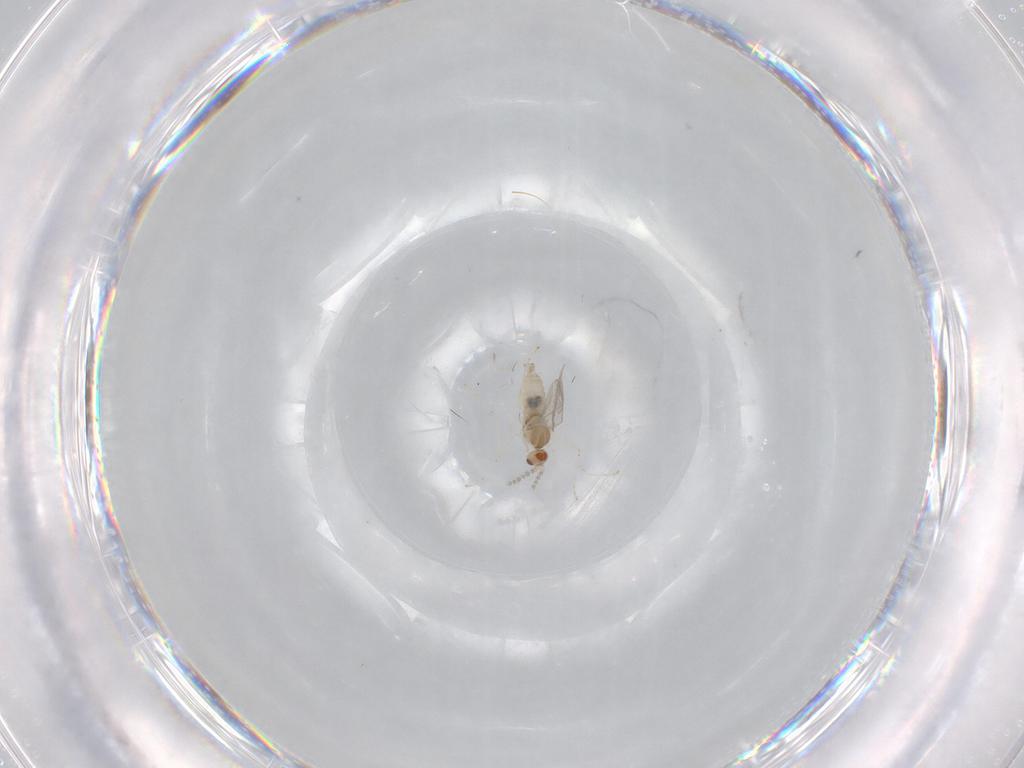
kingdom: Animalia
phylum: Arthropoda
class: Insecta
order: Diptera
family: Cecidomyiidae
